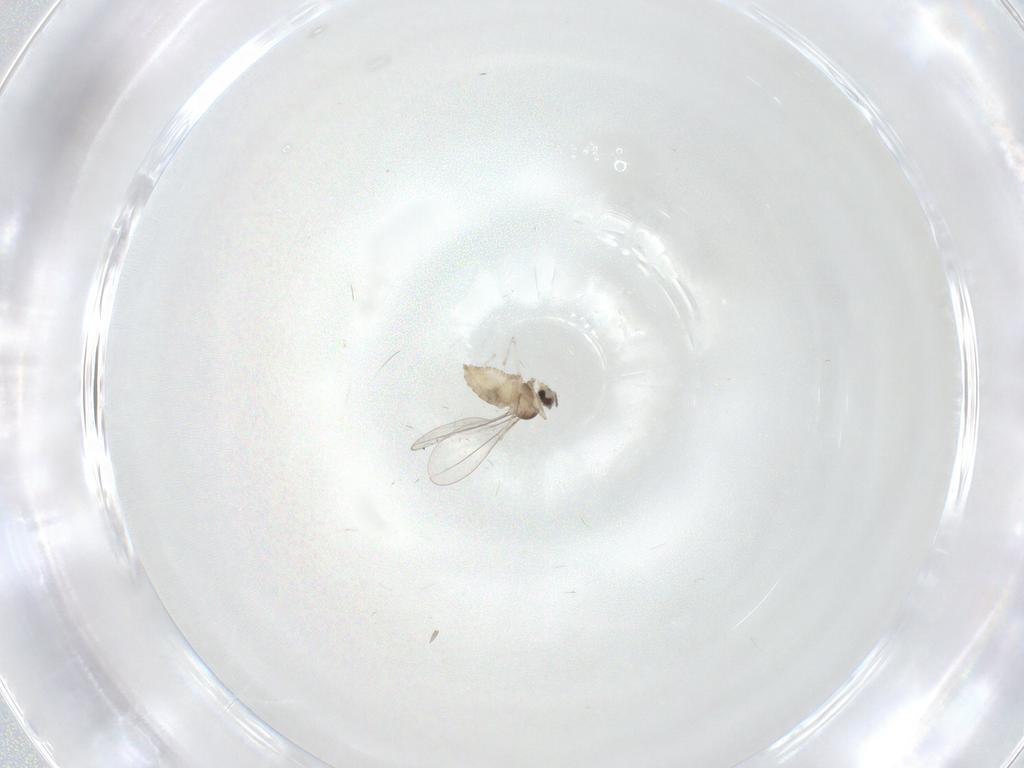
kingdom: Animalia
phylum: Arthropoda
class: Insecta
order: Diptera
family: Cecidomyiidae
